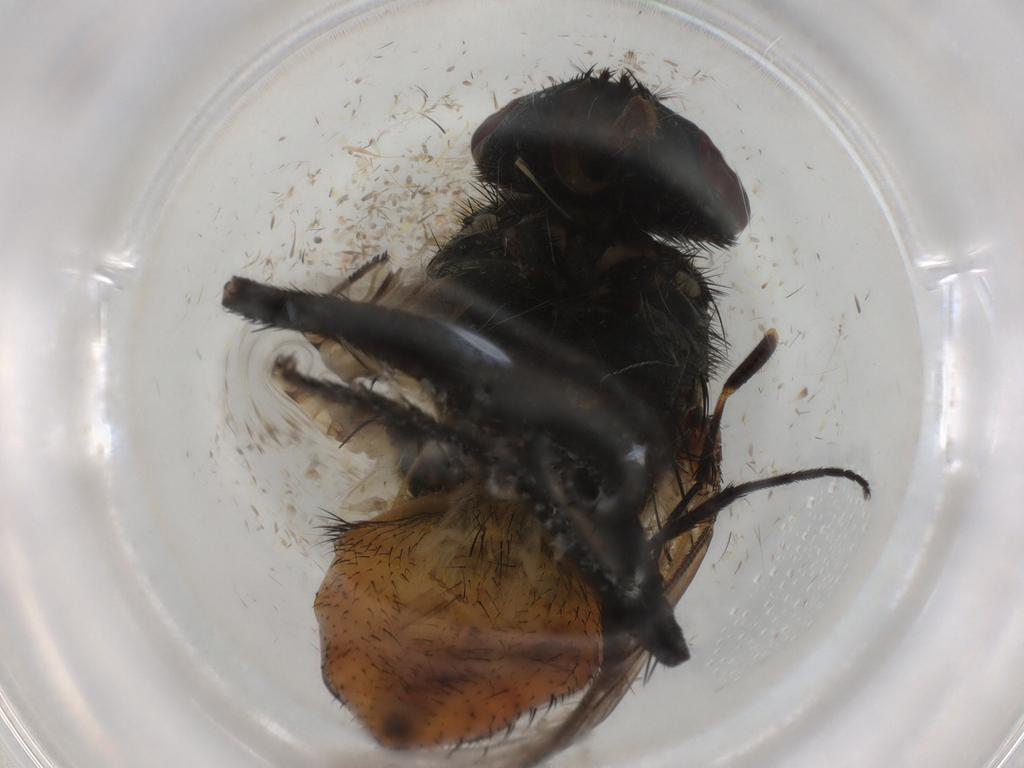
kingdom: Animalia
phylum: Arthropoda
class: Insecta
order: Diptera
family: Muscidae
